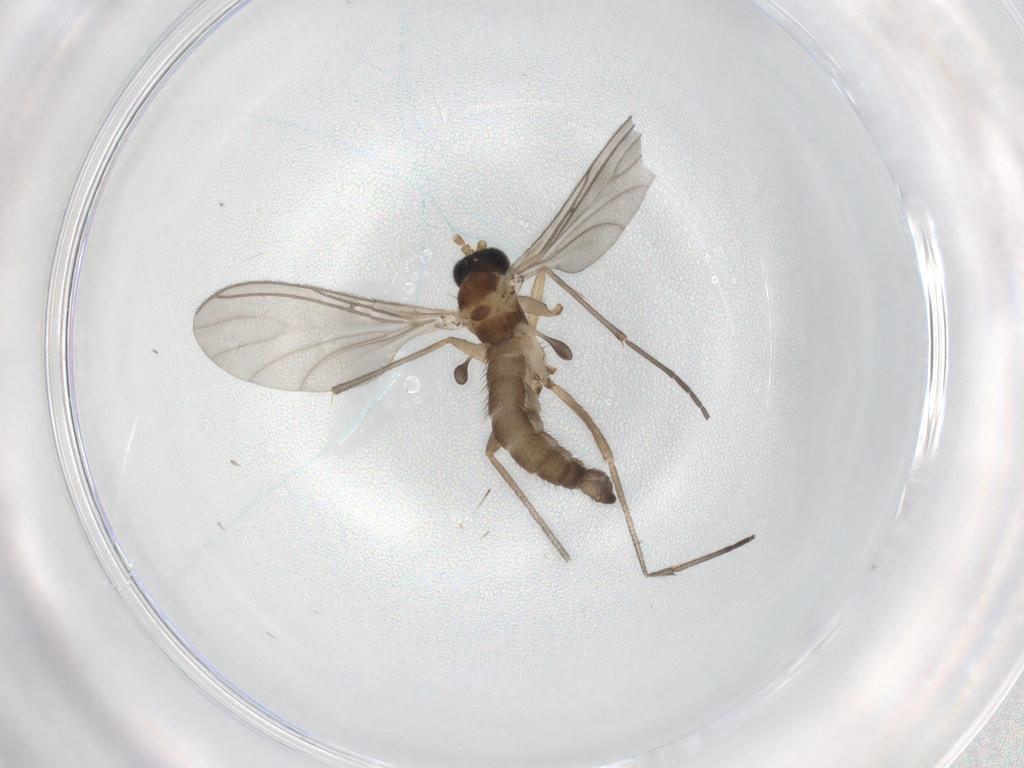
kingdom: Animalia
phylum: Arthropoda
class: Insecta
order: Diptera
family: Sciaridae
